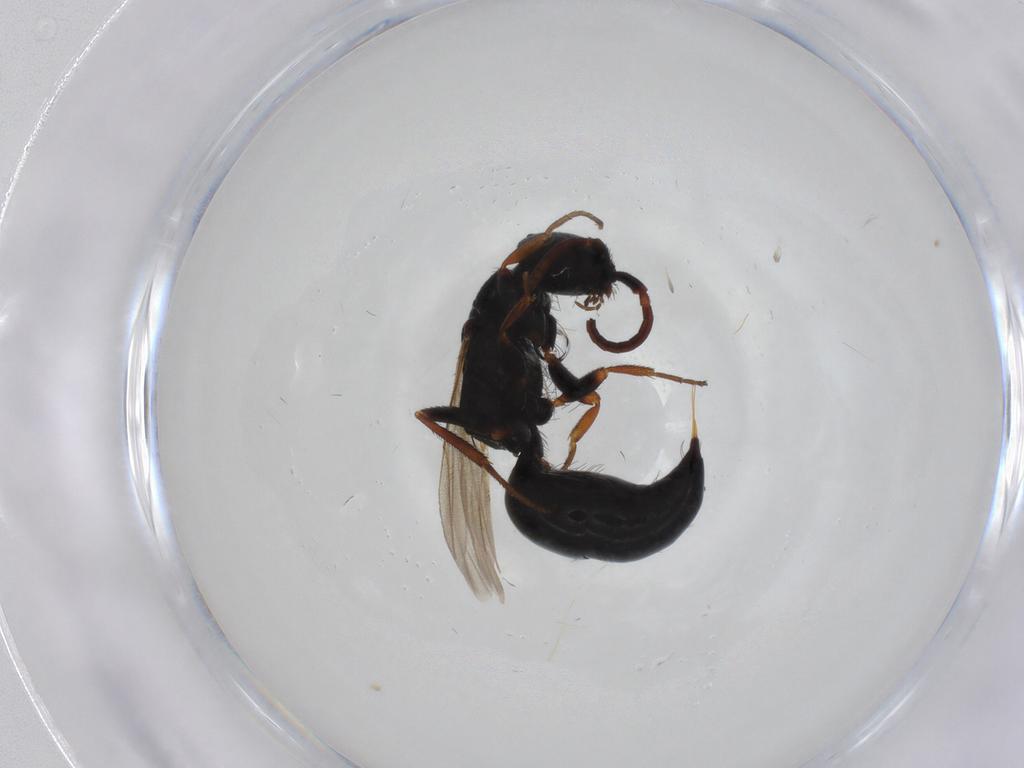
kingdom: Animalia
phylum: Arthropoda
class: Insecta
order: Hymenoptera
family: Bethylidae
